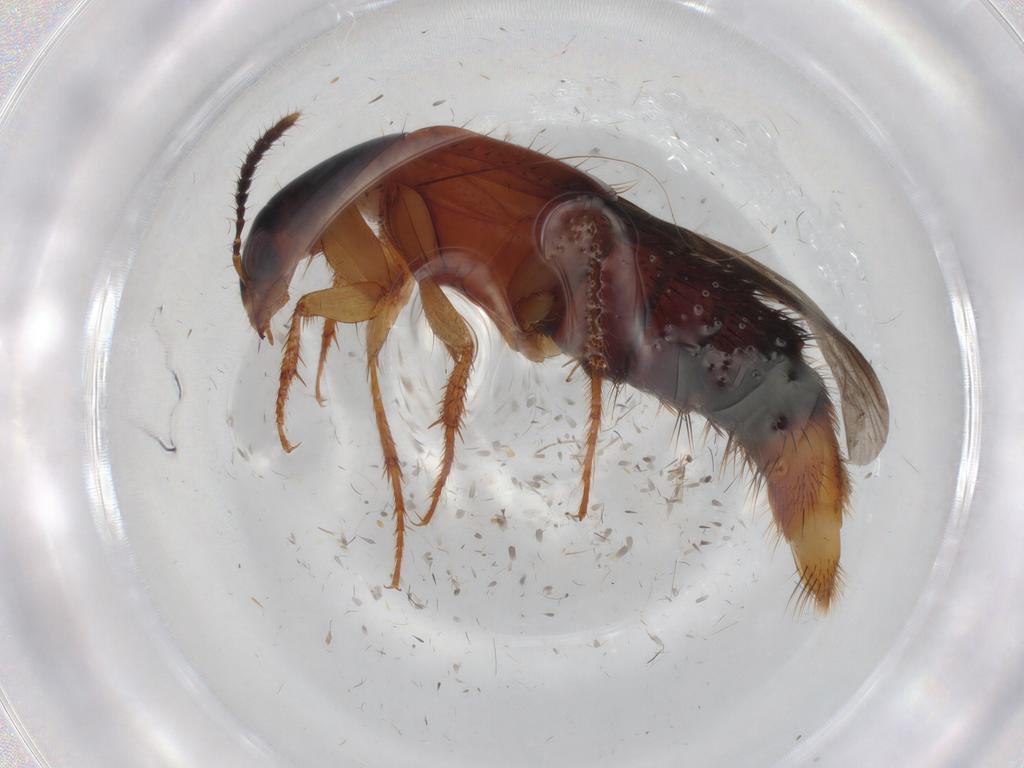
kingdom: Animalia
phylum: Arthropoda
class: Insecta
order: Coleoptera
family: Staphylinidae
